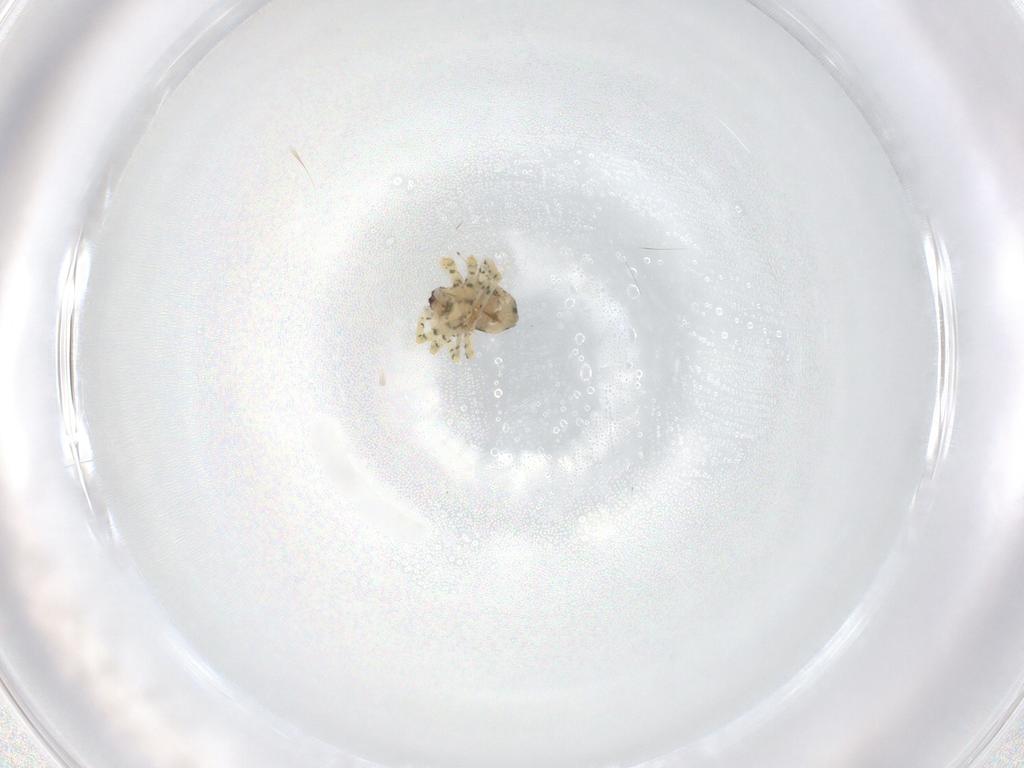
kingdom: Animalia
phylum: Arthropoda
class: Arachnida
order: Araneae
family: Theridiidae
